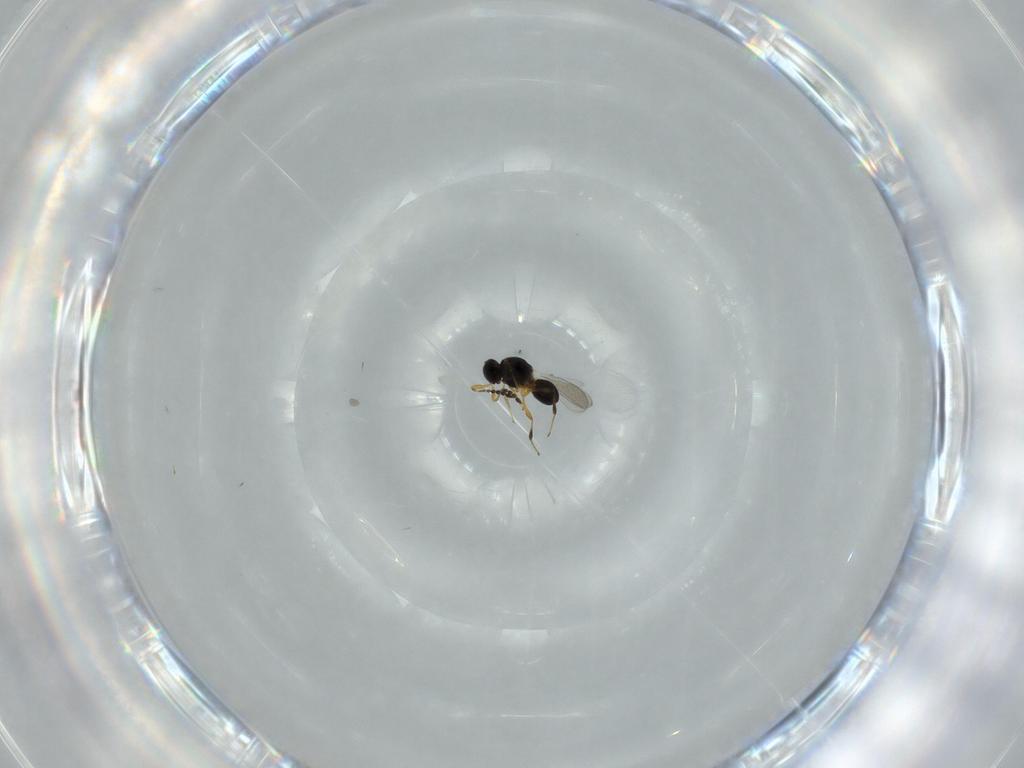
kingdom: Animalia
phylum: Arthropoda
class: Insecta
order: Hymenoptera
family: Platygastridae
